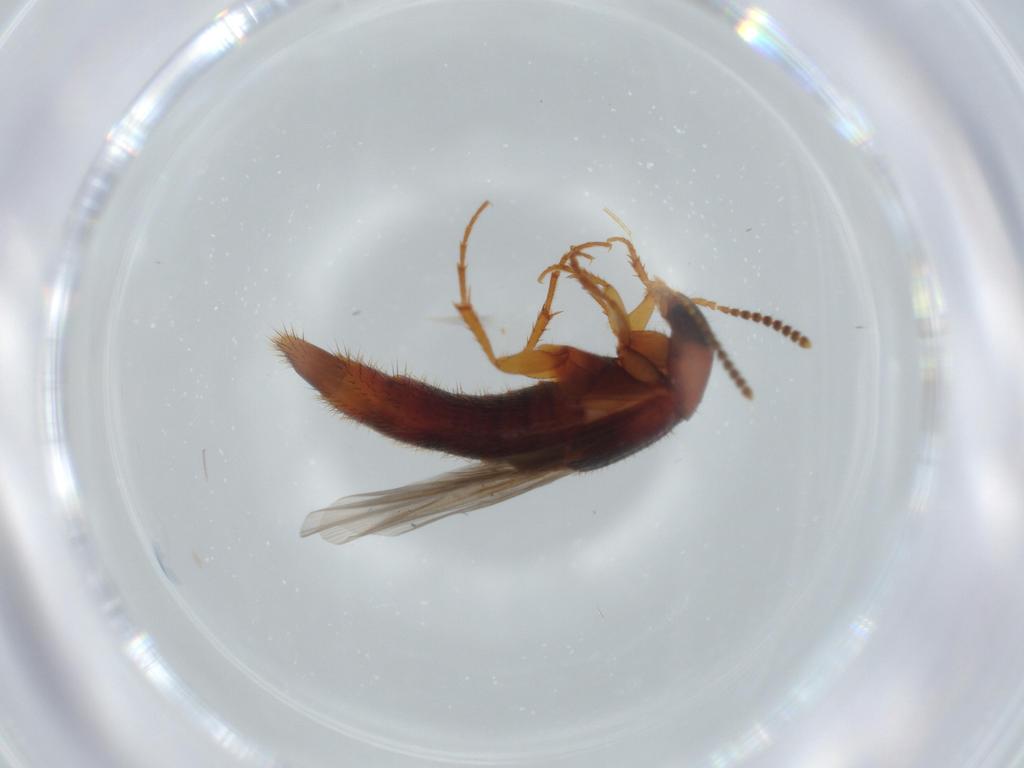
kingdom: Animalia
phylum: Arthropoda
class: Insecta
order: Coleoptera
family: Staphylinidae
